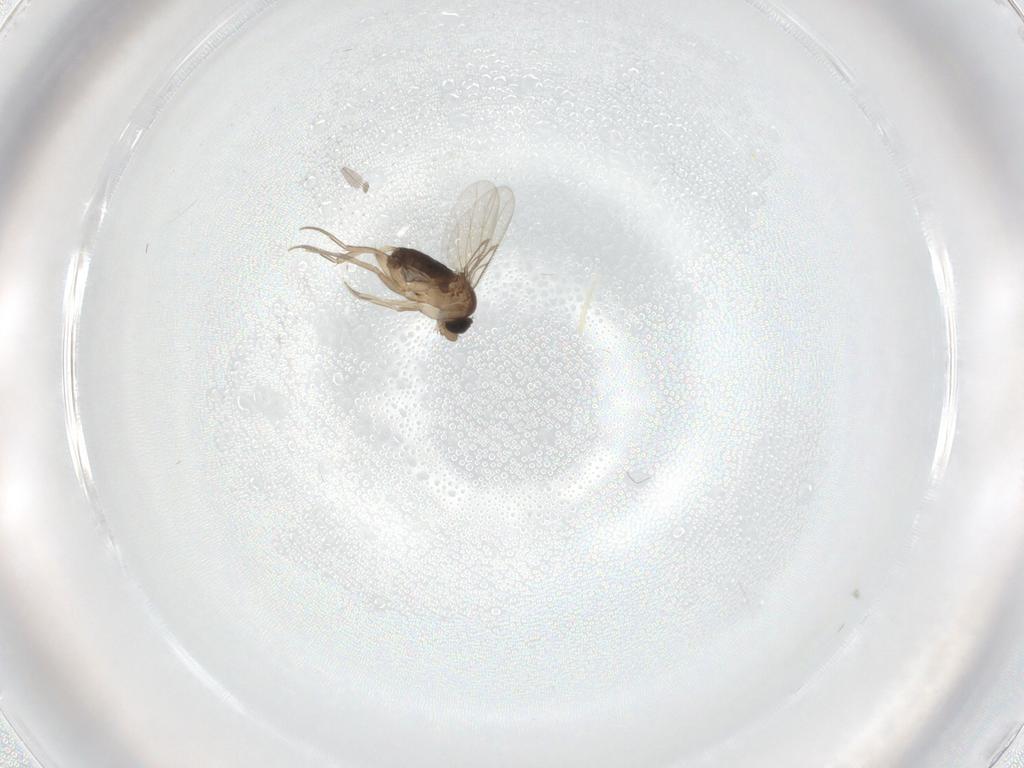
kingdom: Animalia
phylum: Arthropoda
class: Insecta
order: Diptera
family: Phoridae
